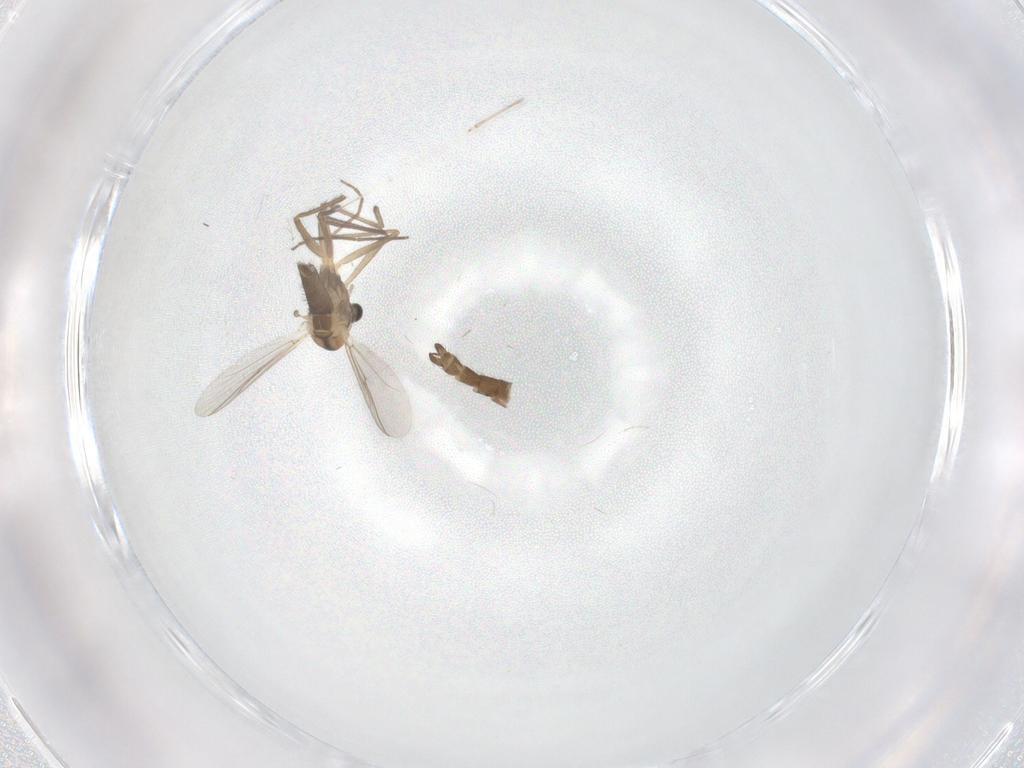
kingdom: Animalia
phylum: Arthropoda
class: Insecta
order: Diptera
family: Chironomidae
